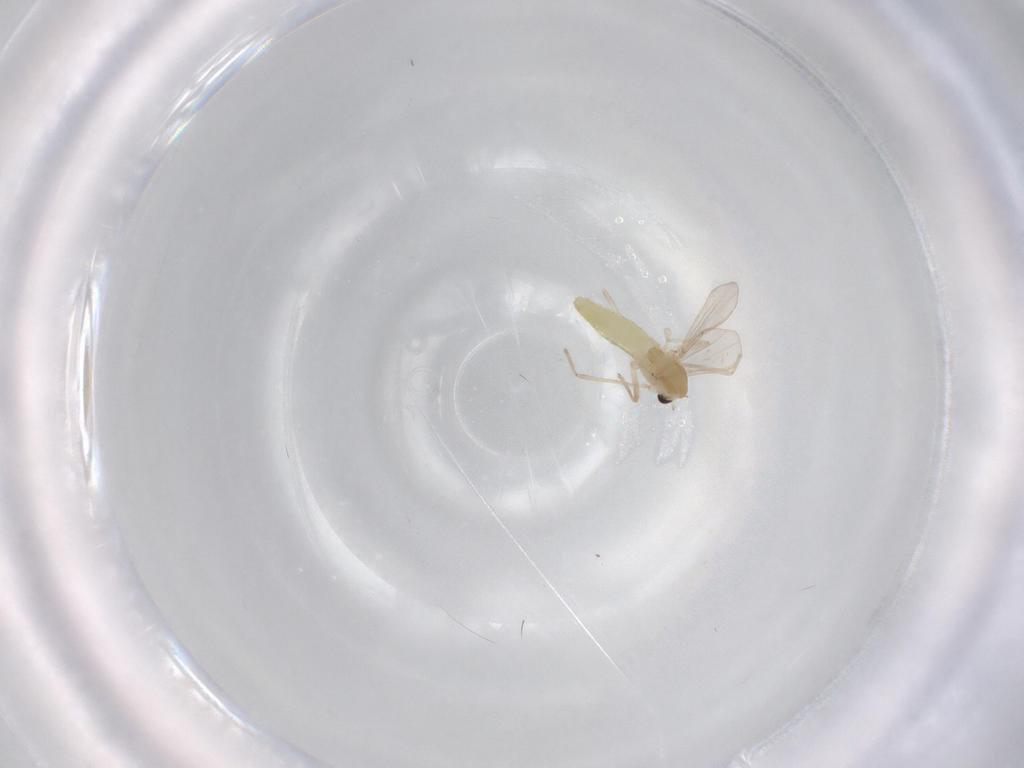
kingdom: Animalia
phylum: Arthropoda
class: Insecta
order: Diptera
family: Chironomidae
